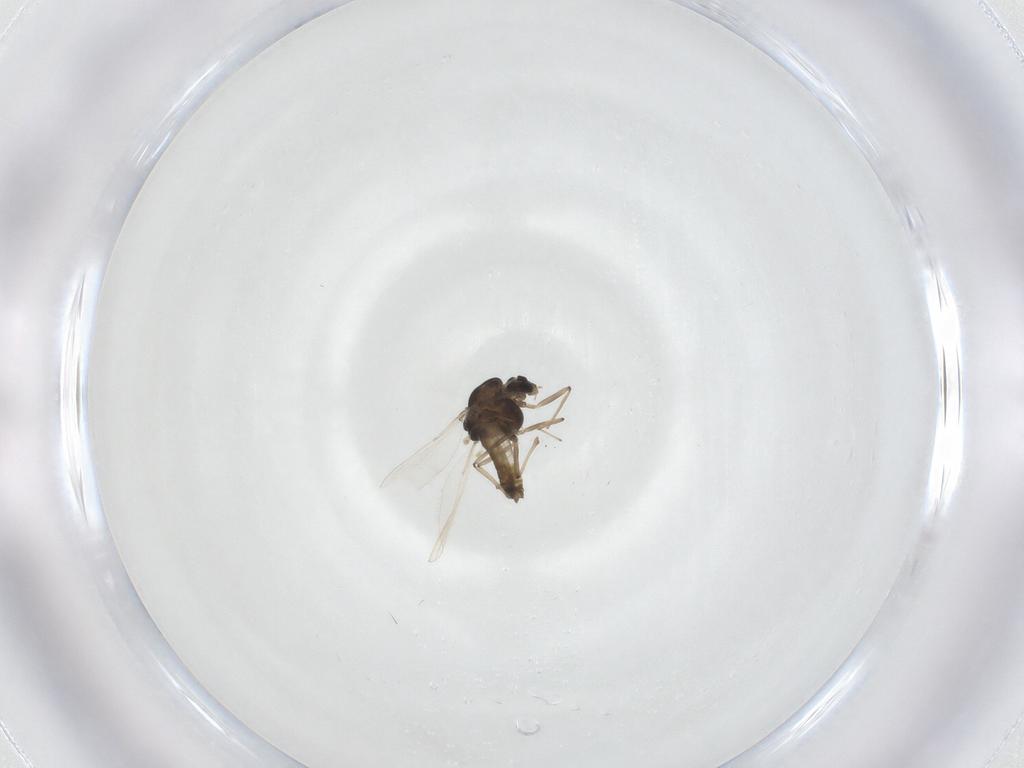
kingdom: Animalia
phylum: Arthropoda
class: Insecta
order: Diptera
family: Chironomidae
